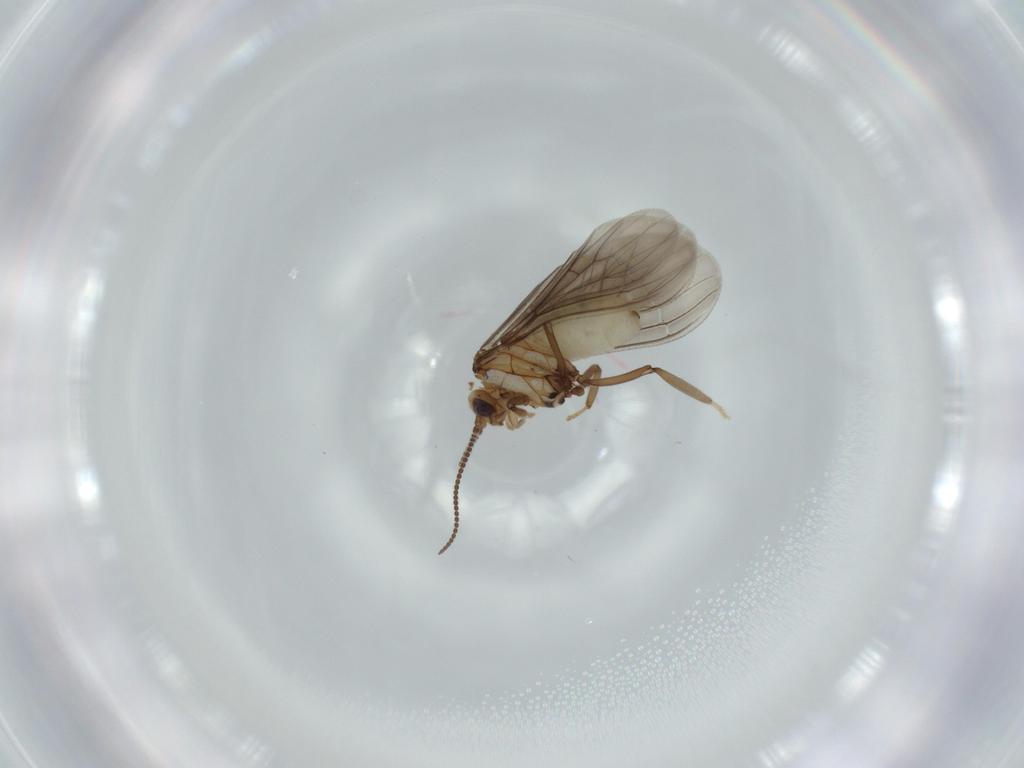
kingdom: Animalia
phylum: Arthropoda
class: Insecta
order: Neuroptera
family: Coniopterygidae
